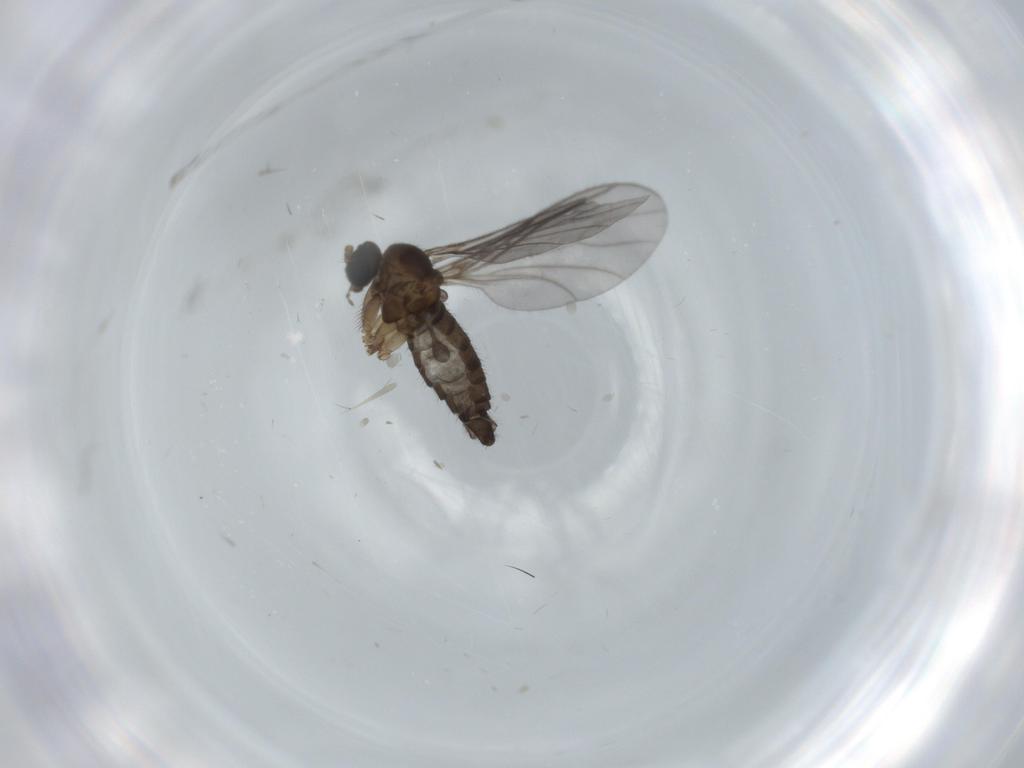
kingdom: Animalia
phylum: Arthropoda
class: Insecta
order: Diptera
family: Sciaridae
